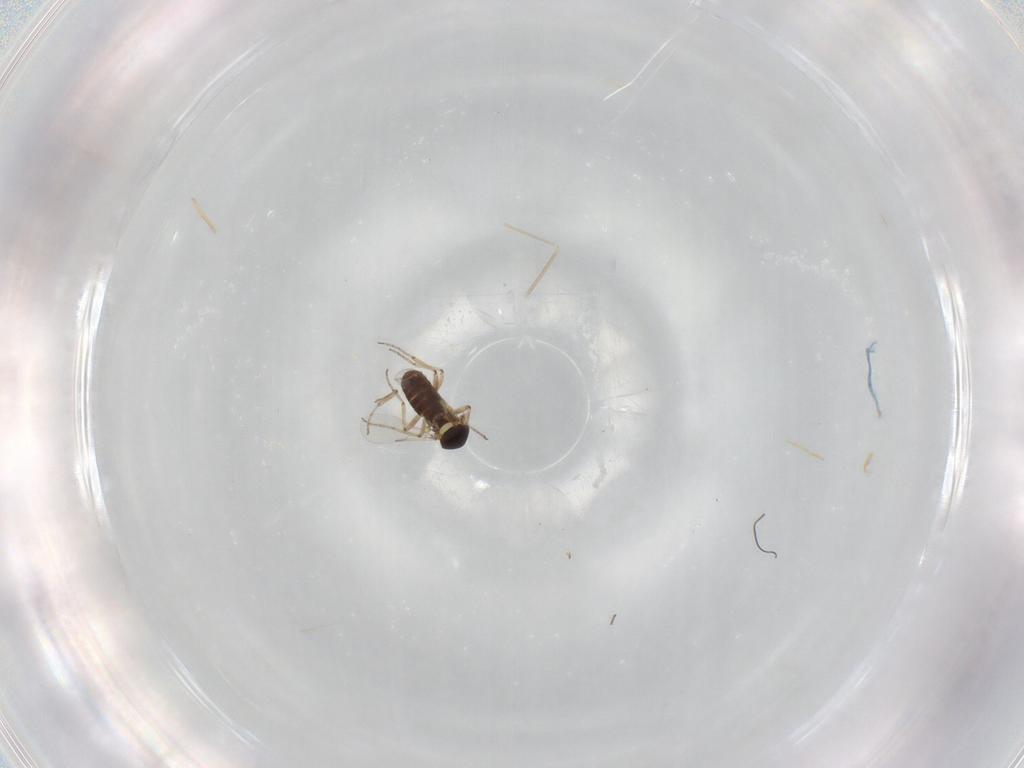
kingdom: Animalia
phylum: Arthropoda
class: Insecta
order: Diptera
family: Ceratopogonidae
